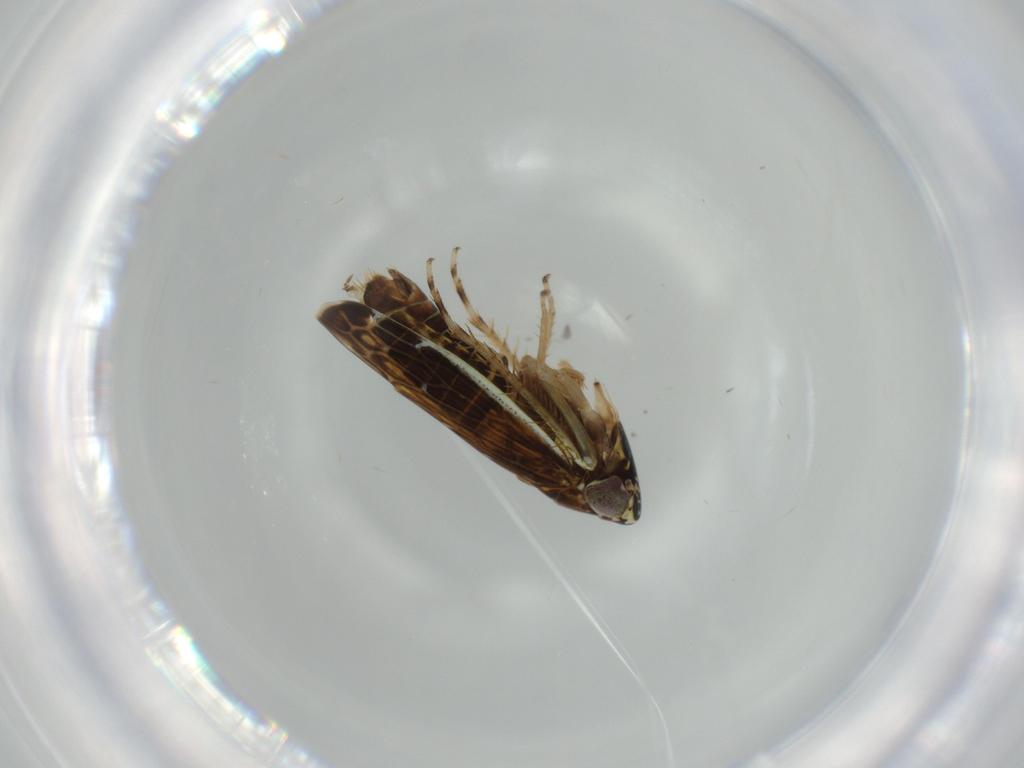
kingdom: Animalia
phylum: Arthropoda
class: Insecta
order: Hemiptera
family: Cicadellidae
